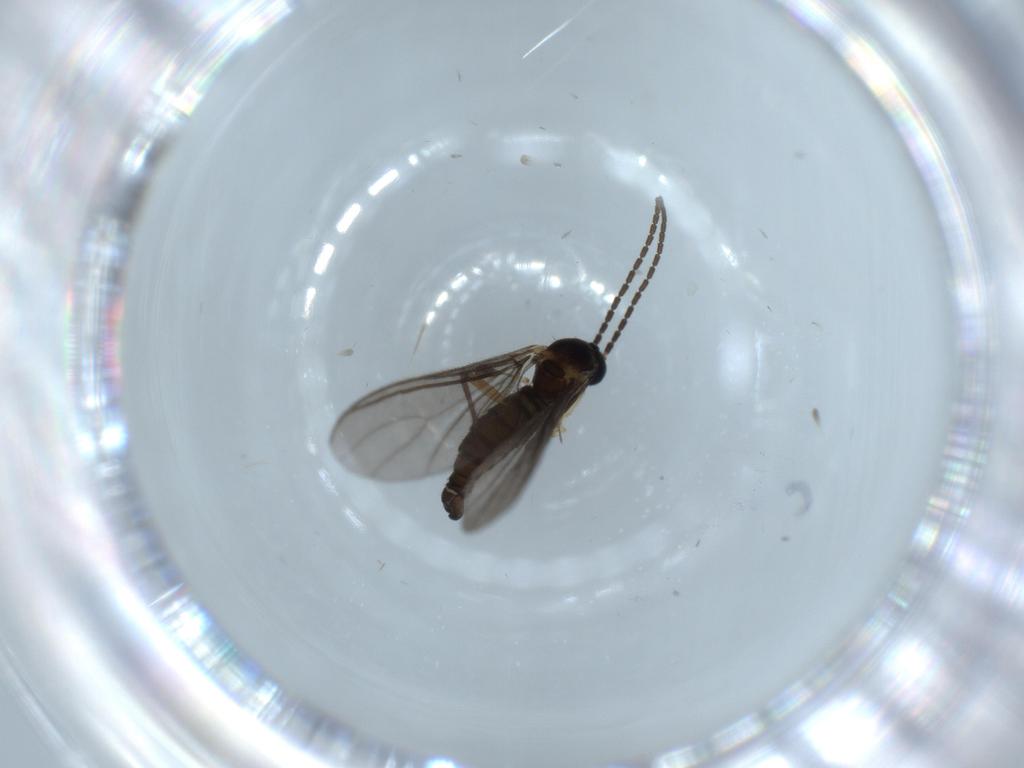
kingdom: Animalia
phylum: Arthropoda
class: Insecta
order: Diptera
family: Sciaridae
